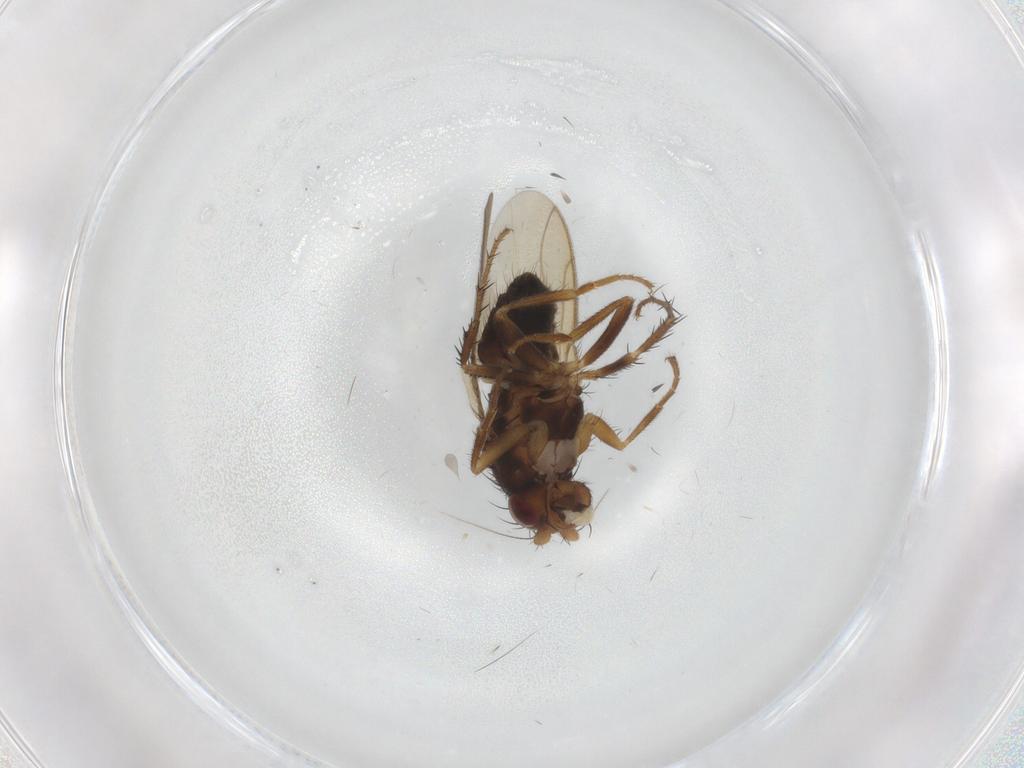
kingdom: Animalia
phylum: Arthropoda
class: Insecta
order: Diptera
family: Sphaeroceridae
